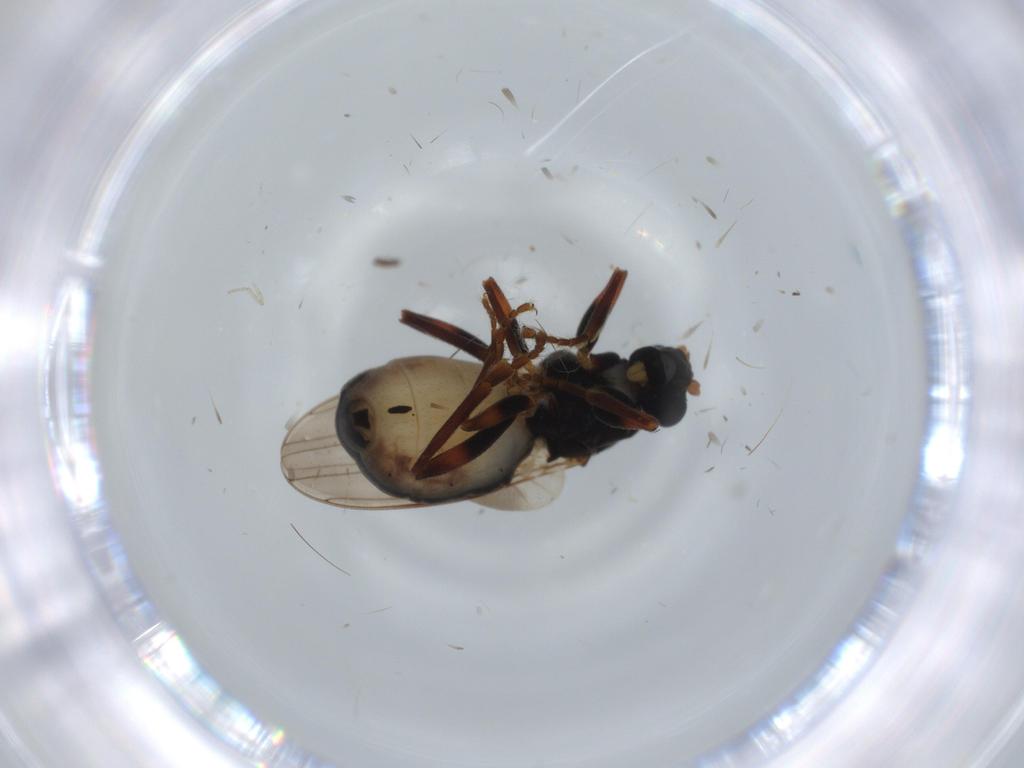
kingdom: Animalia
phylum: Arthropoda
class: Insecta
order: Diptera
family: Sphaeroceridae
